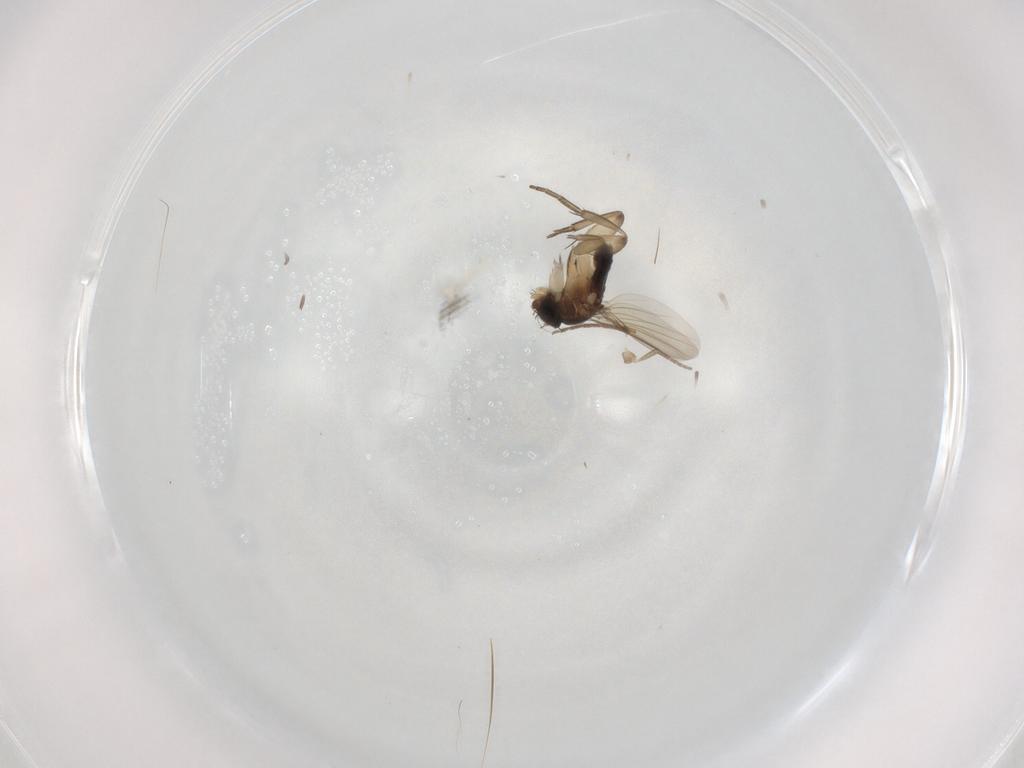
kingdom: Animalia
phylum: Arthropoda
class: Insecta
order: Diptera
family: Phoridae
